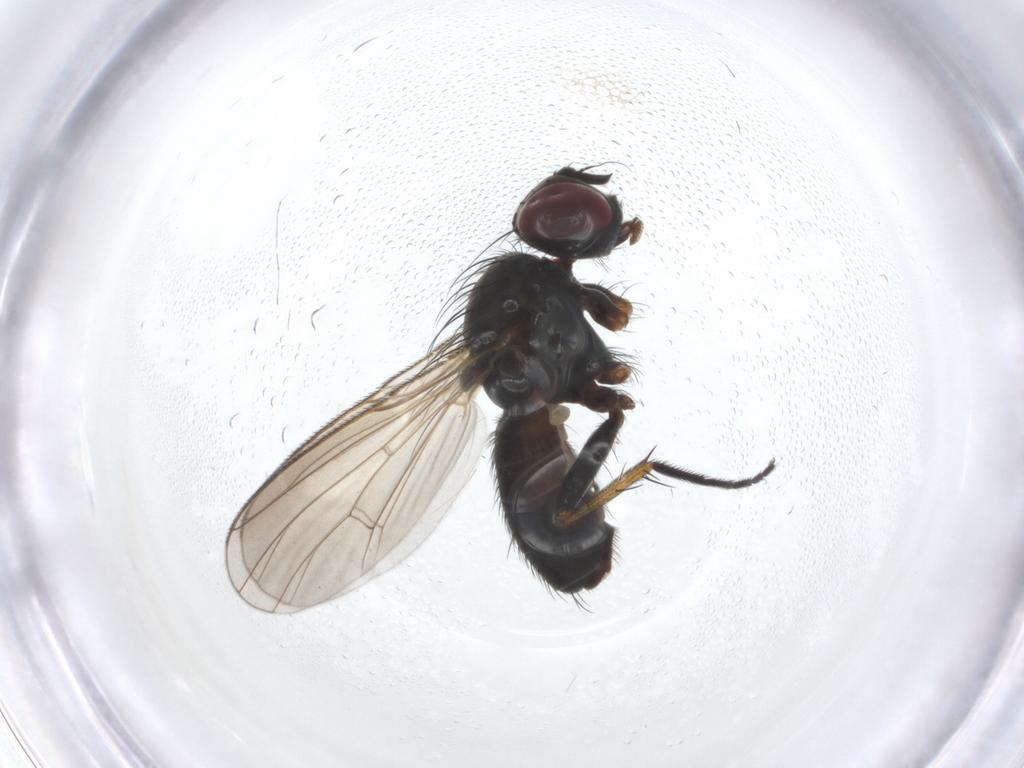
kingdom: Animalia
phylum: Arthropoda
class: Insecta
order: Diptera
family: Muscidae
